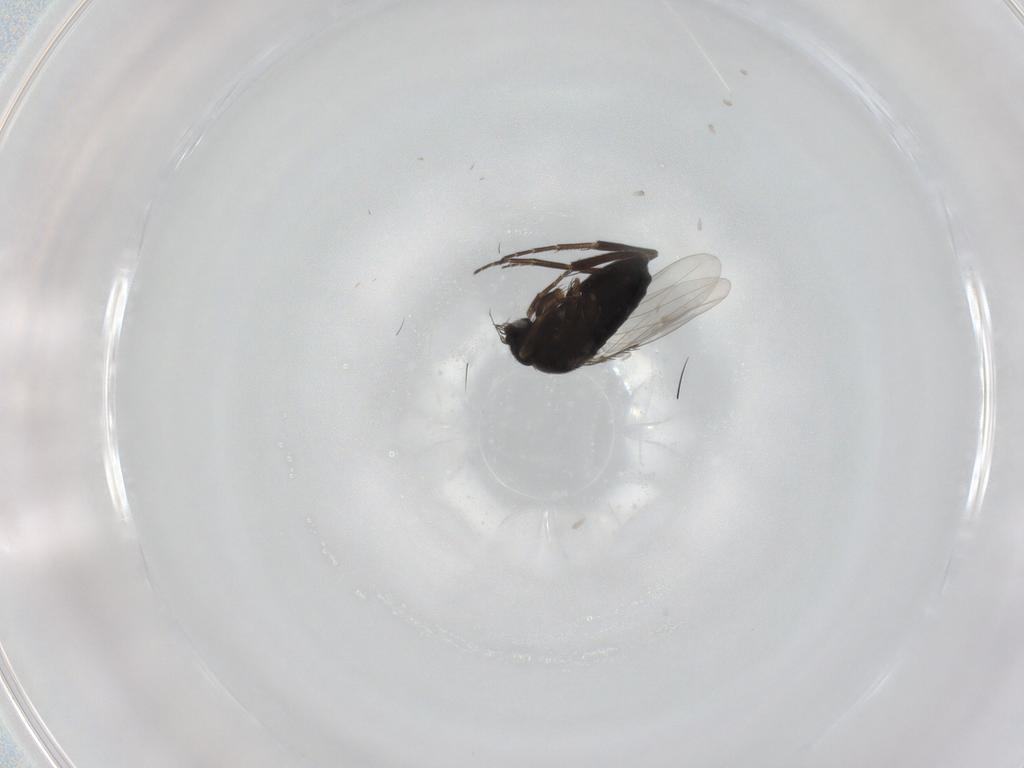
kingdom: Animalia
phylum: Arthropoda
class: Insecta
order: Diptera
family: Phoridae
